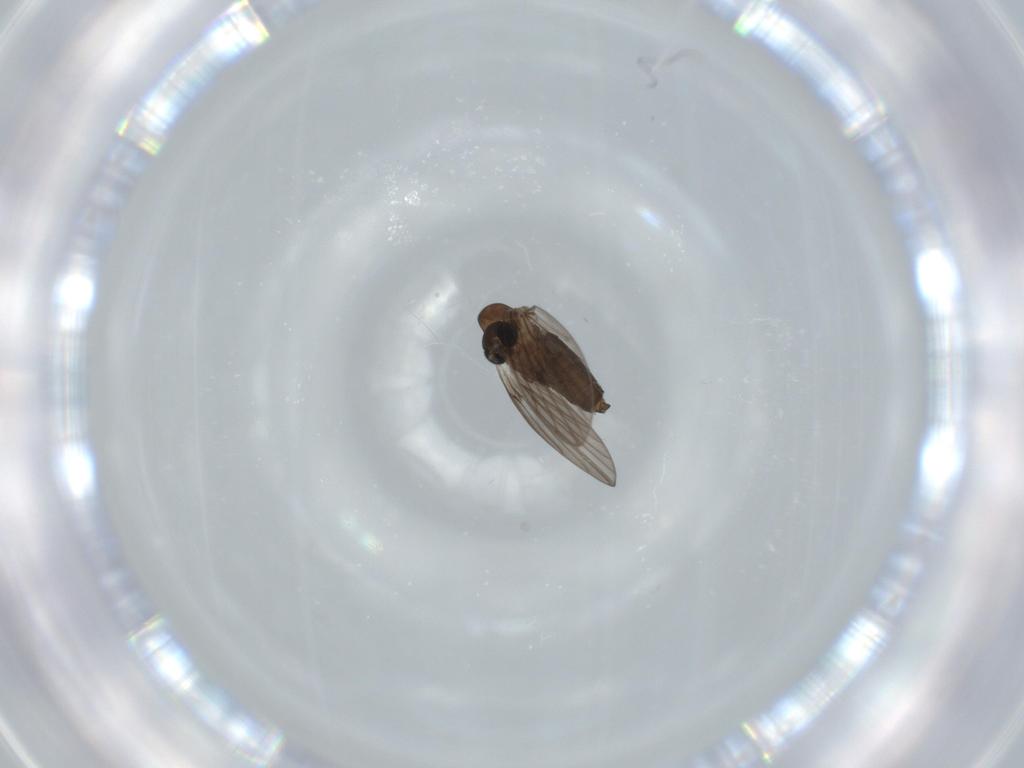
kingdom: Animalia
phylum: Arthropoda
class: Insecta
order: Diptera
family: Psychodidae
